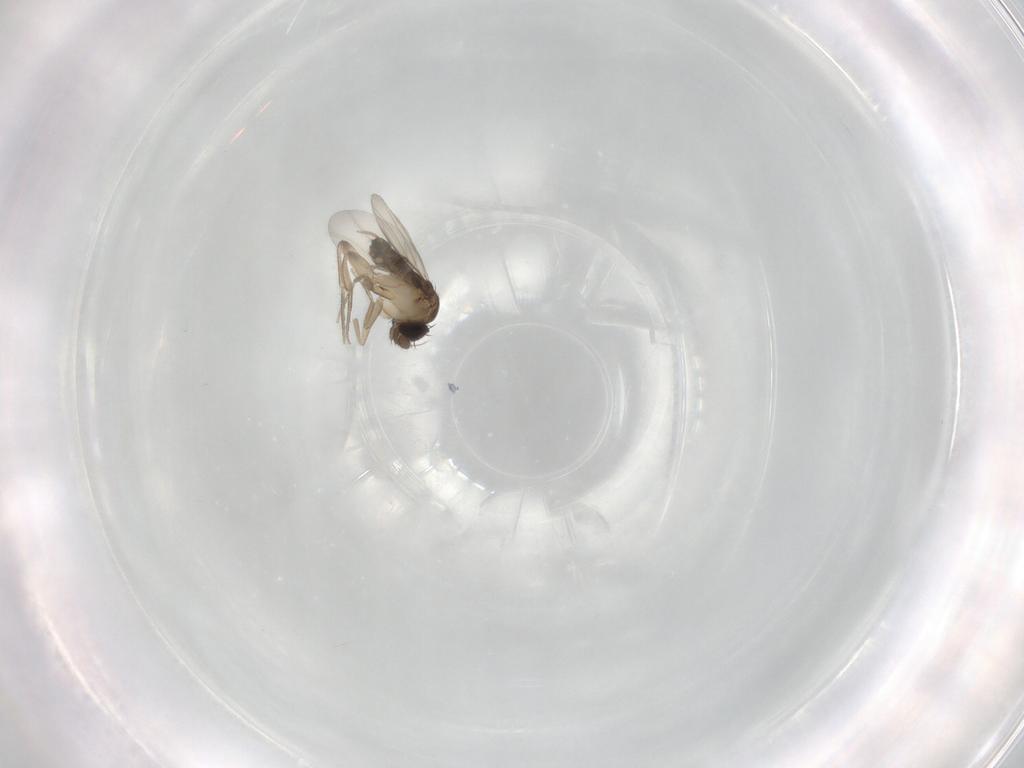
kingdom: Animalia
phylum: Arthropoda
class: Insecta
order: Diptera
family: Phoridae
